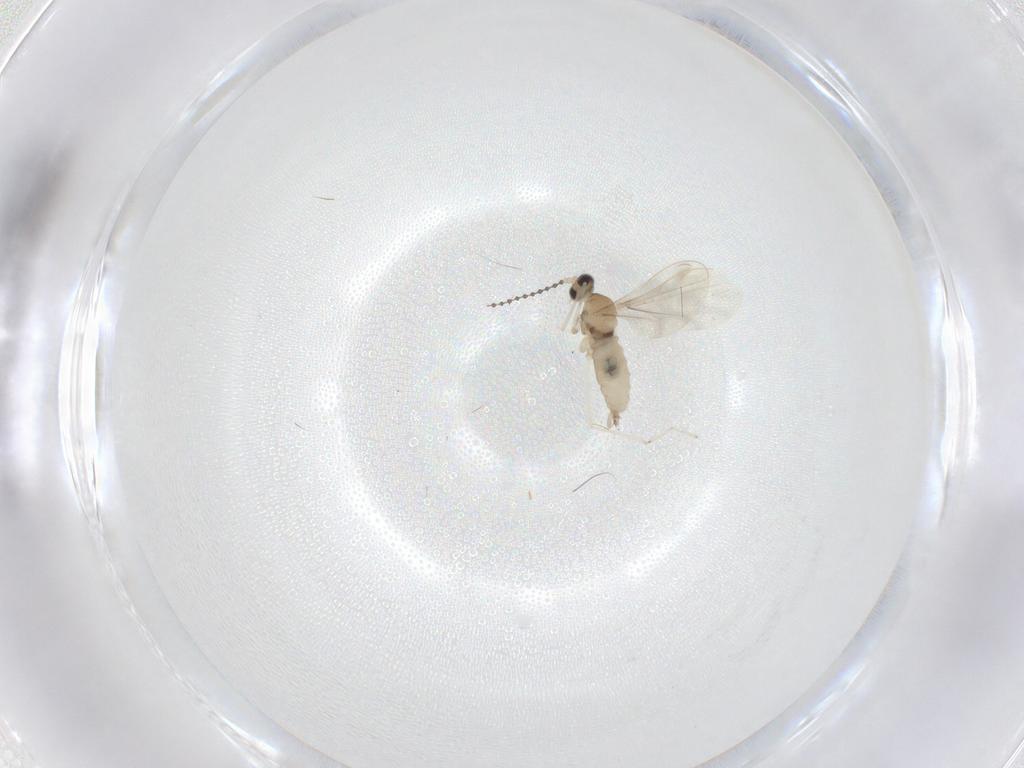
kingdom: Animalia
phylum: Arthropoda
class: Insecta
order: Diptera
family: Cecidomyiidae
